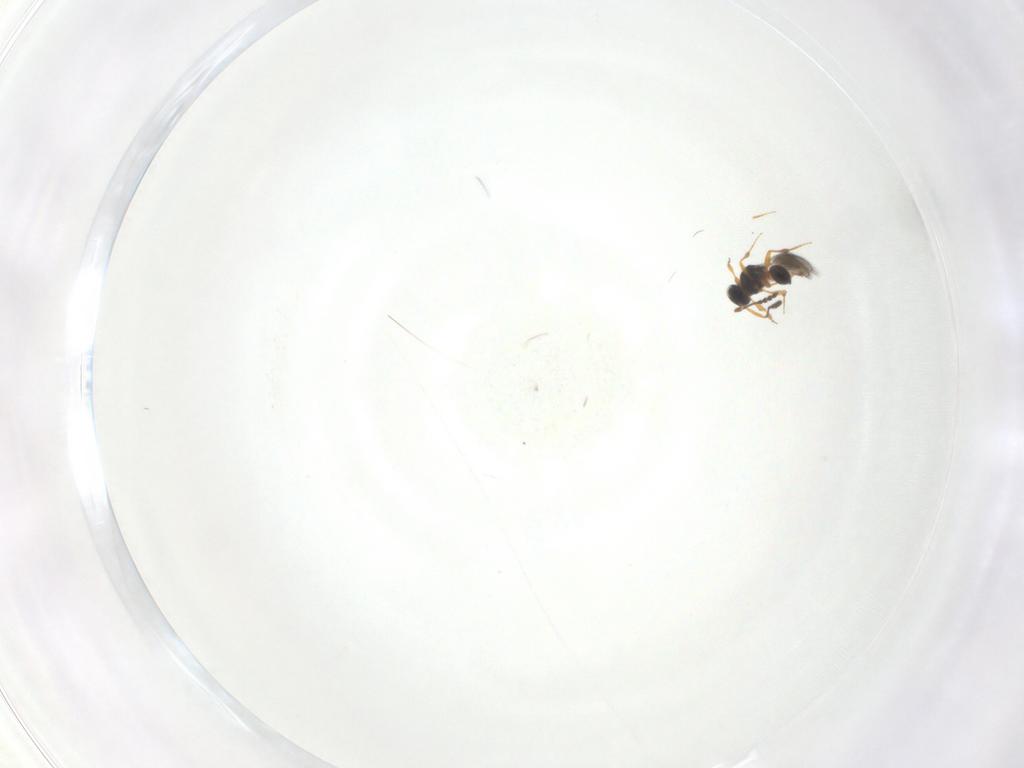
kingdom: Animalia
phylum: Arthropoda
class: Insecta
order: Hymenoptera
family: Platygastridae
